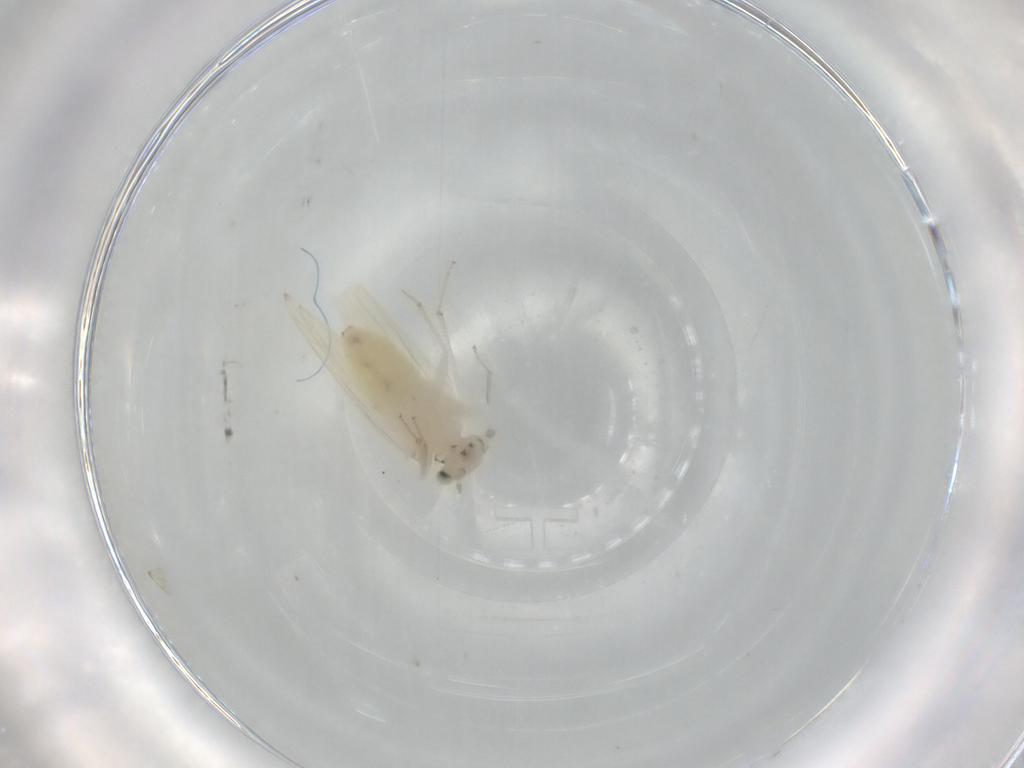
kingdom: Animalia
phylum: Arthropoda
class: Insecta
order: Psocodea
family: Lepidopsocidae
